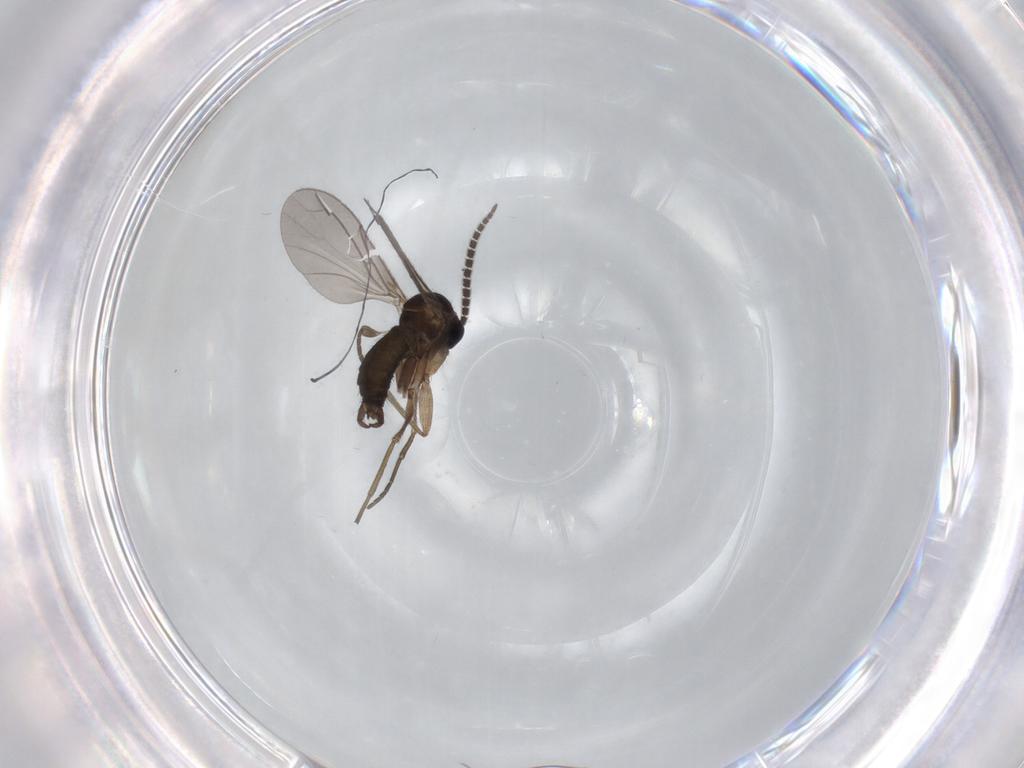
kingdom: Animalia
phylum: Arthropoda
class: Insecta
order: Diptera
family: Sciaridae
